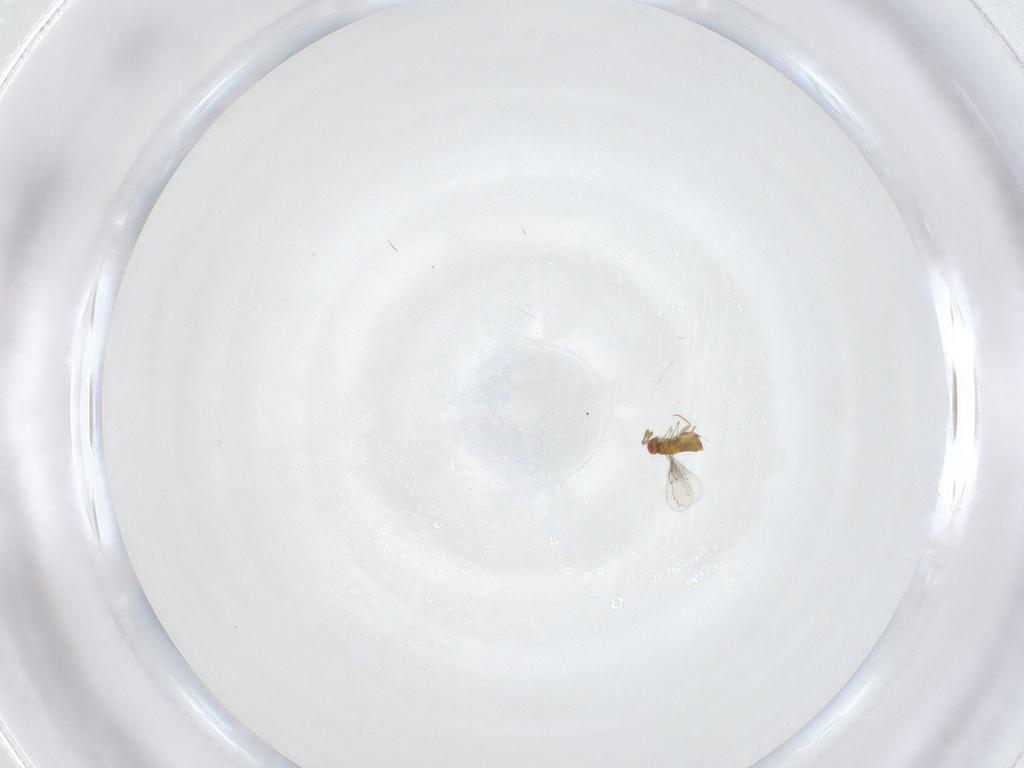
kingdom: Animalia
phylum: Arthropoda
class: Insecta
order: Hymenoptera
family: Trichogrammatidae
